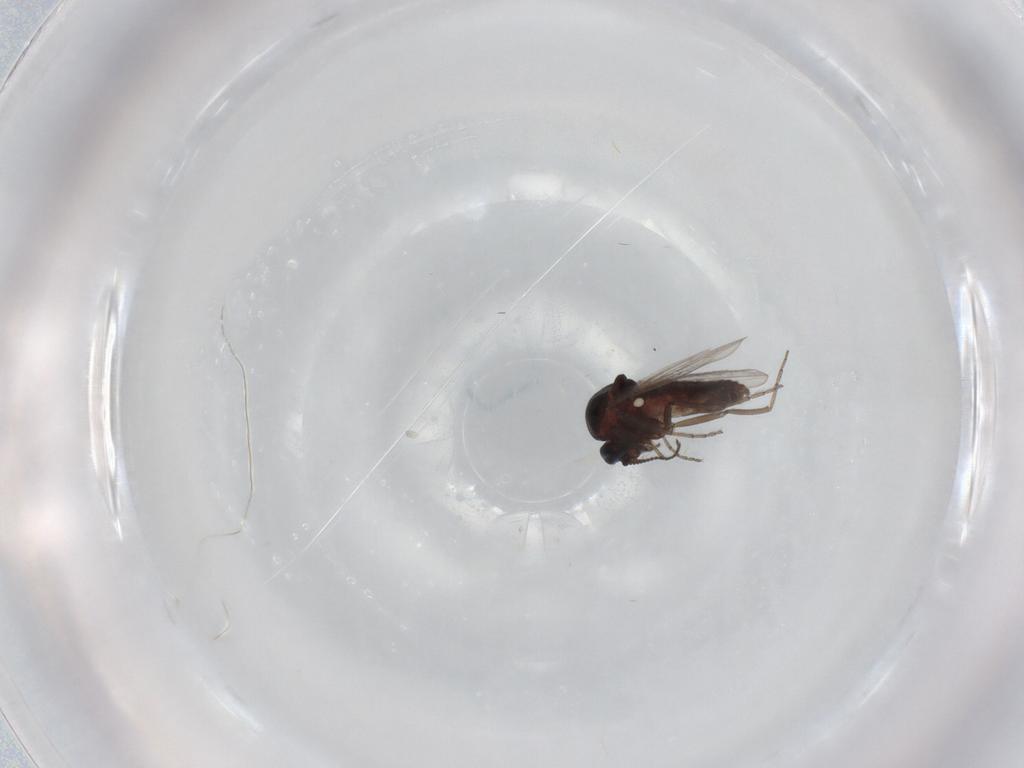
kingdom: Animalia
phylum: Arthropoda
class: Insecta
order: Diptera
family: Ceratopogonidae
